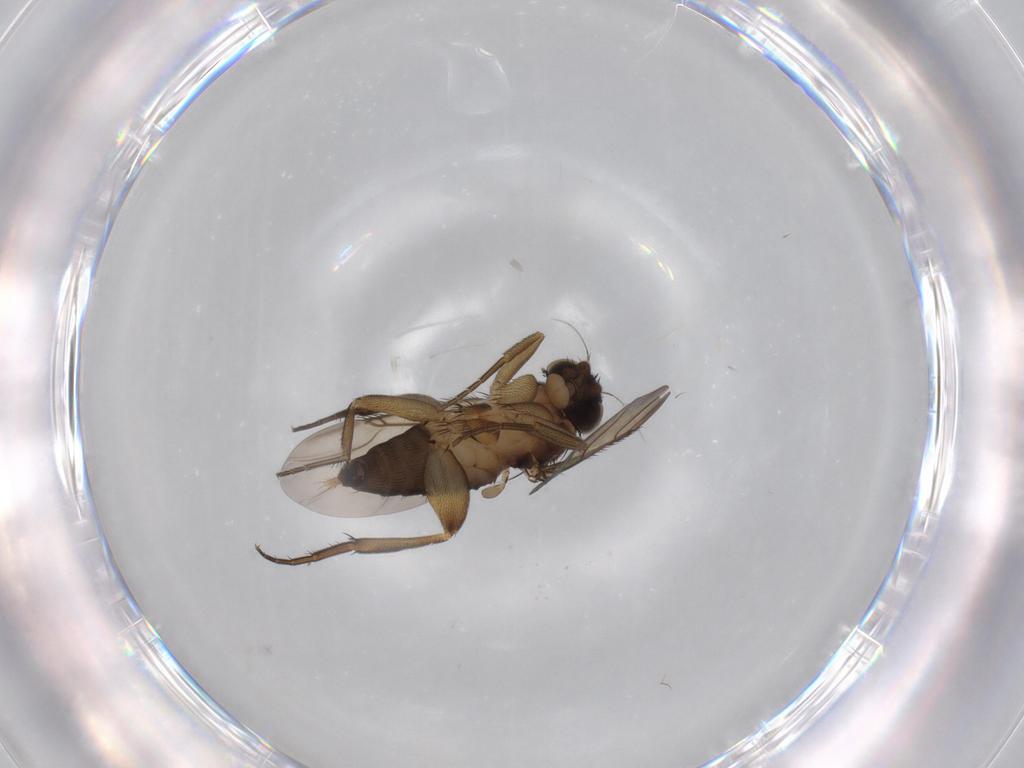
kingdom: Animalia
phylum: Arthropoda
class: Insecta
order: Diptera
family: Phoridae
